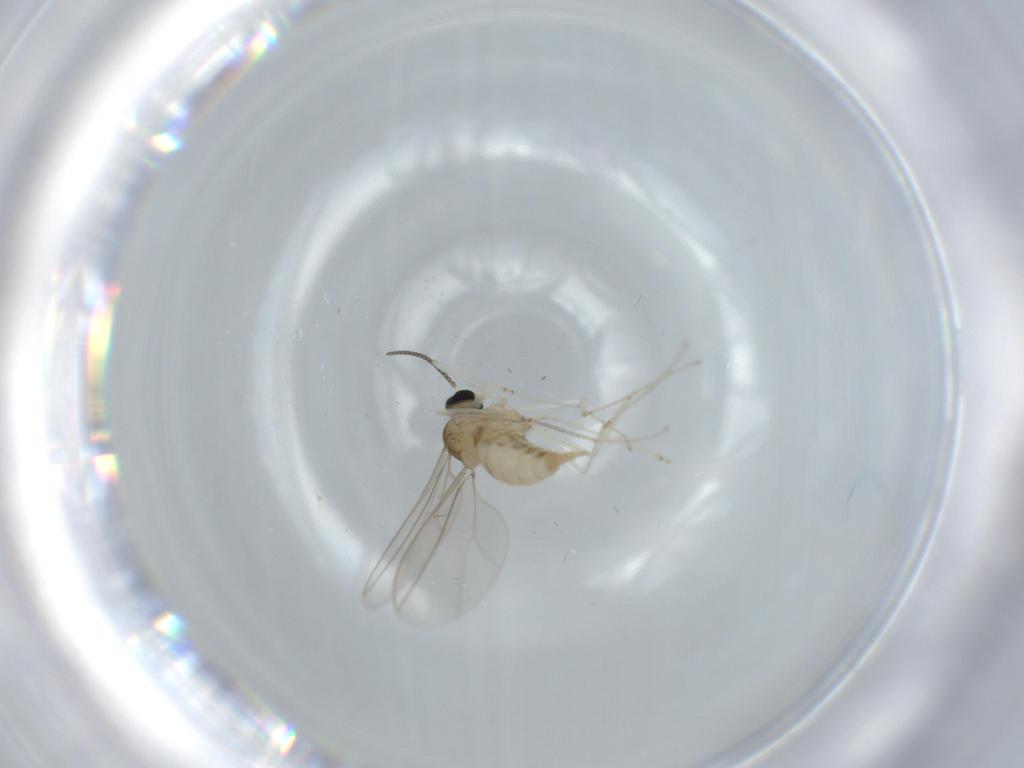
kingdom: Animalia
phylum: Arthropoda
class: Insecta
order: Diptera
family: Cecidomyiidae
